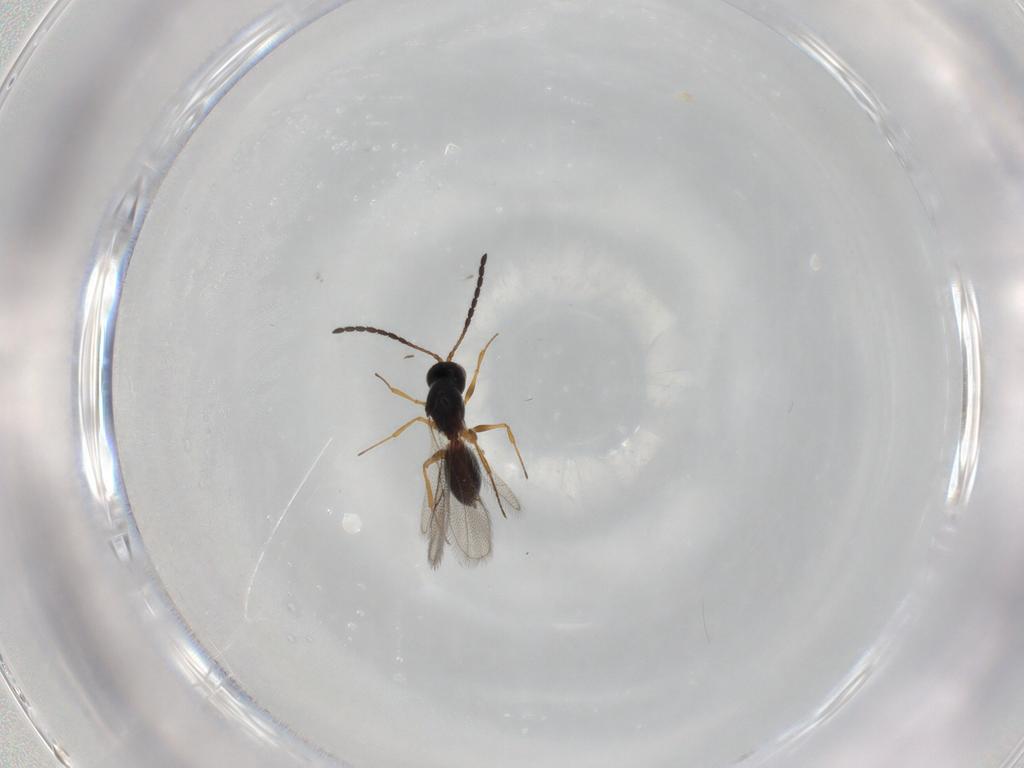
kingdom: Animalia
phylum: Arthropoda
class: Insecta
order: Hymenoptera
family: Figitidae
